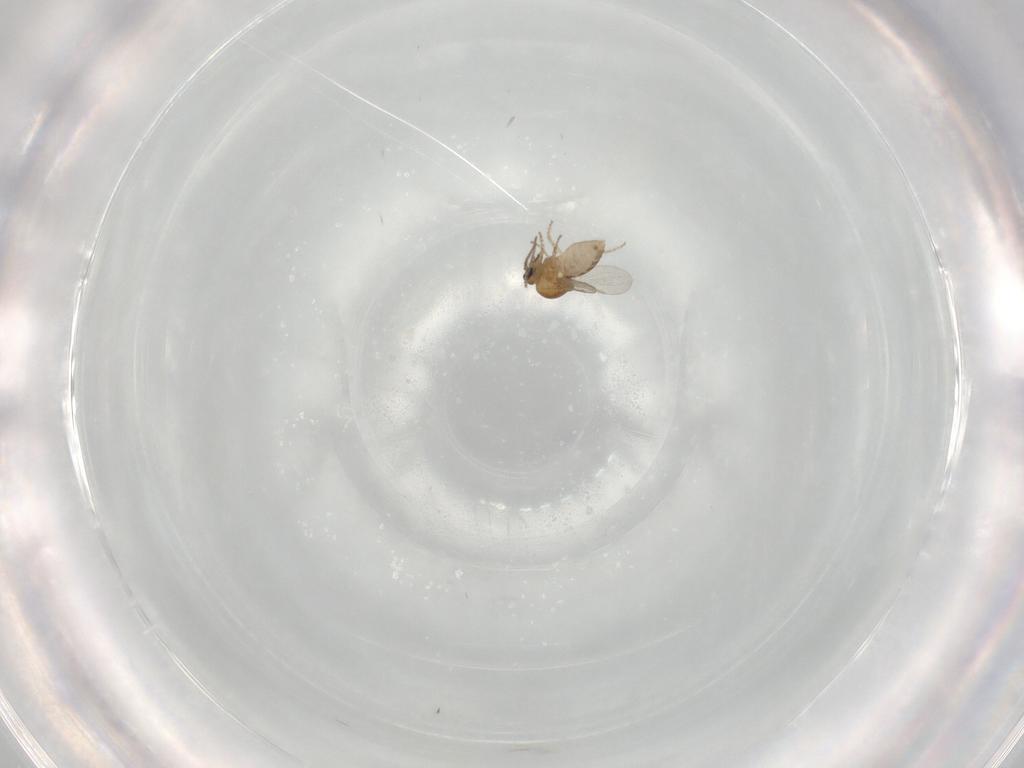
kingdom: Animalia
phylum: Arthropoda
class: Insecta
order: Diptera
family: Ceratopogonidae
